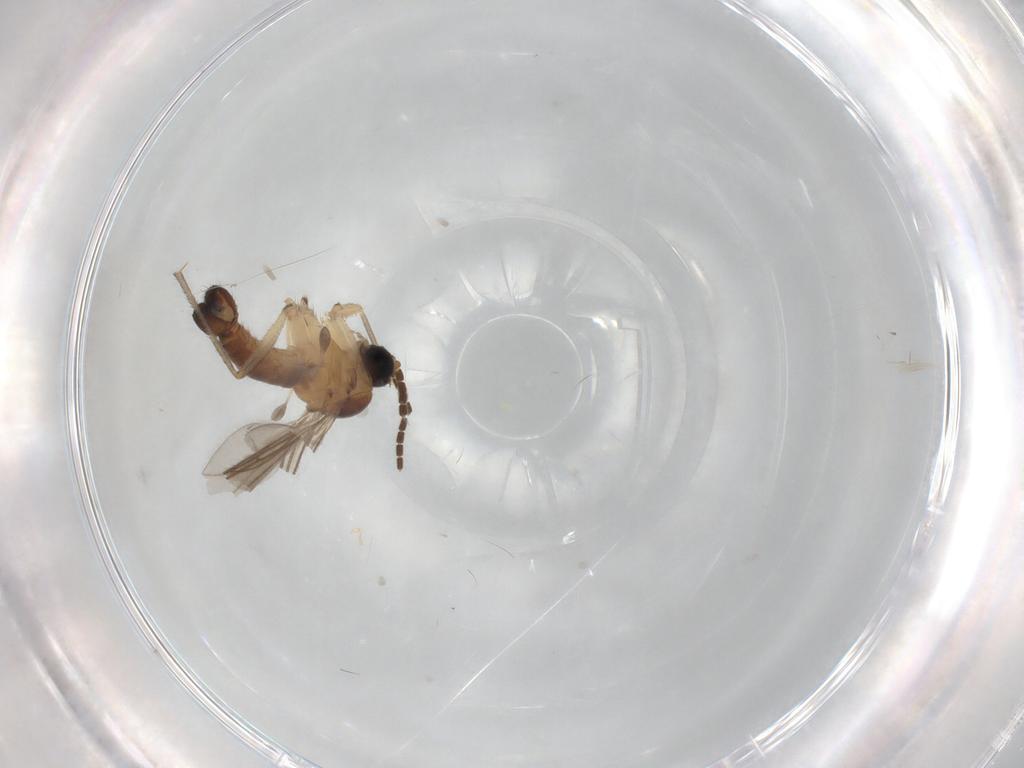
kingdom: Animalia
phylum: Arthropoda
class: Insecta
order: Diptera
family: Sciaridae
